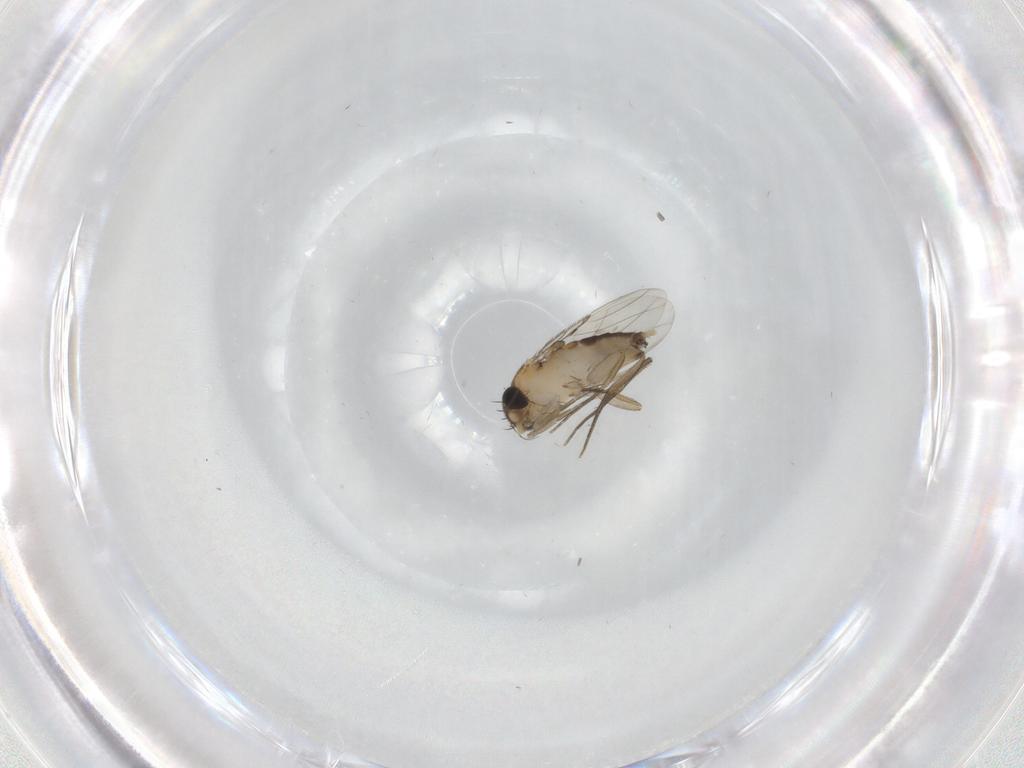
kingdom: Animalia
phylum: Arthropoda
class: Insecta
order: Diptera
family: Phoridae
